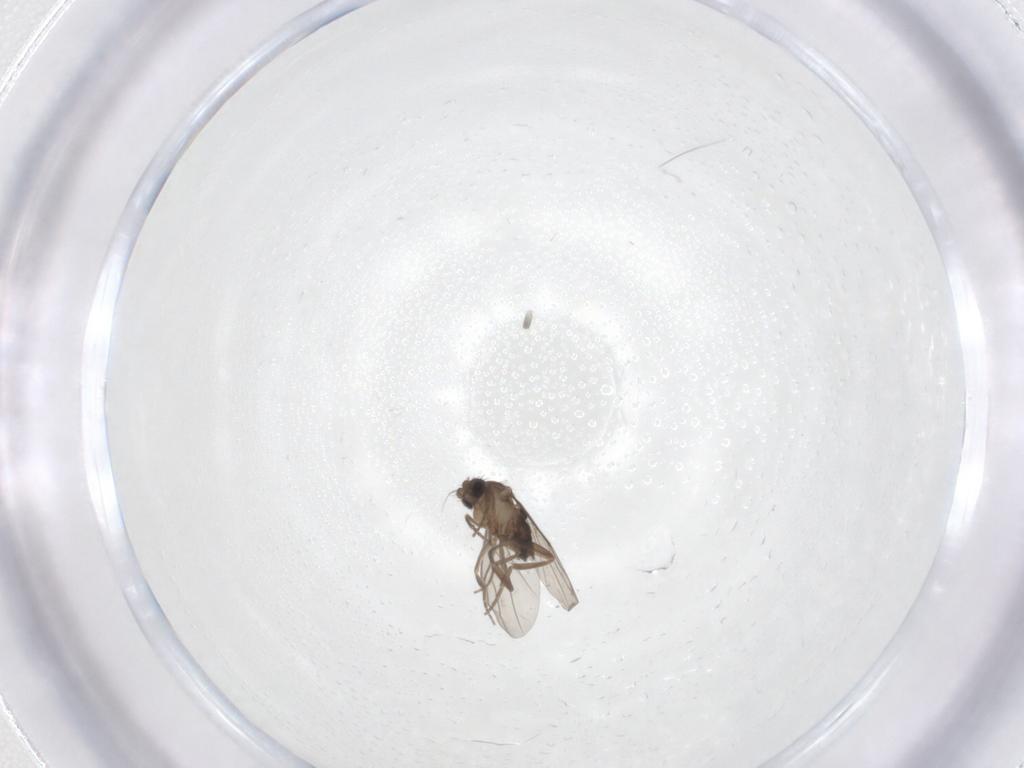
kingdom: Animalia
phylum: Arthropoda
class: Insecta
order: Diptera
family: Phoridae
